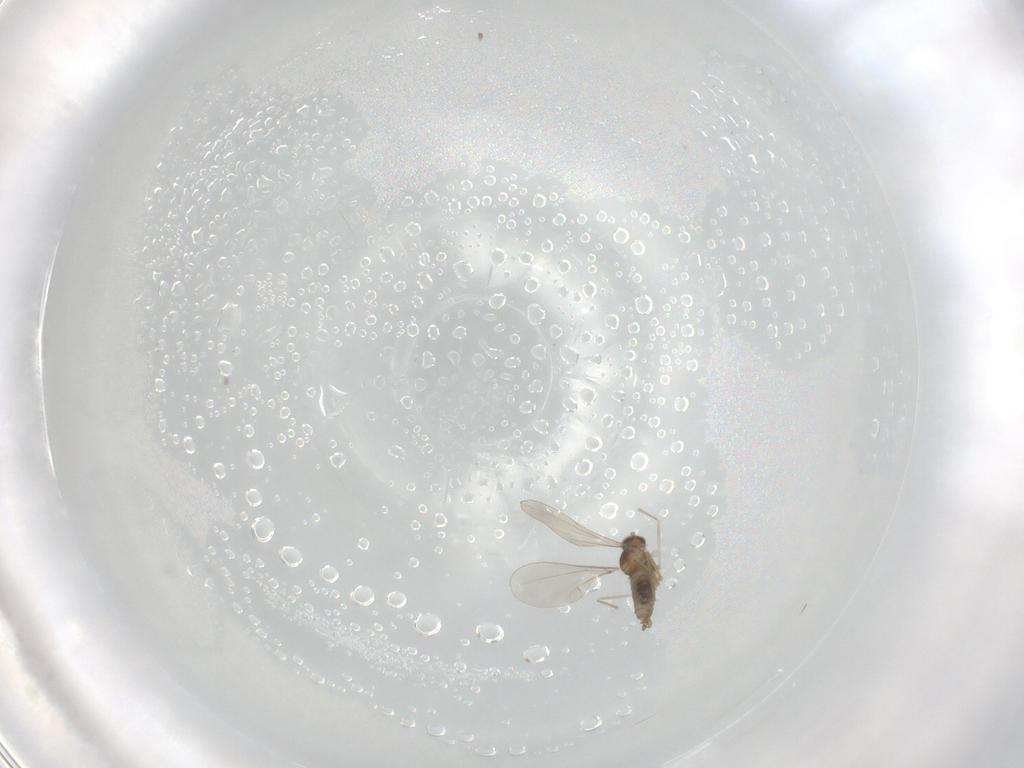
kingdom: Animalia
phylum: Arthropoda
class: Insecta
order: Diptera
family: Cecidomyiidae
